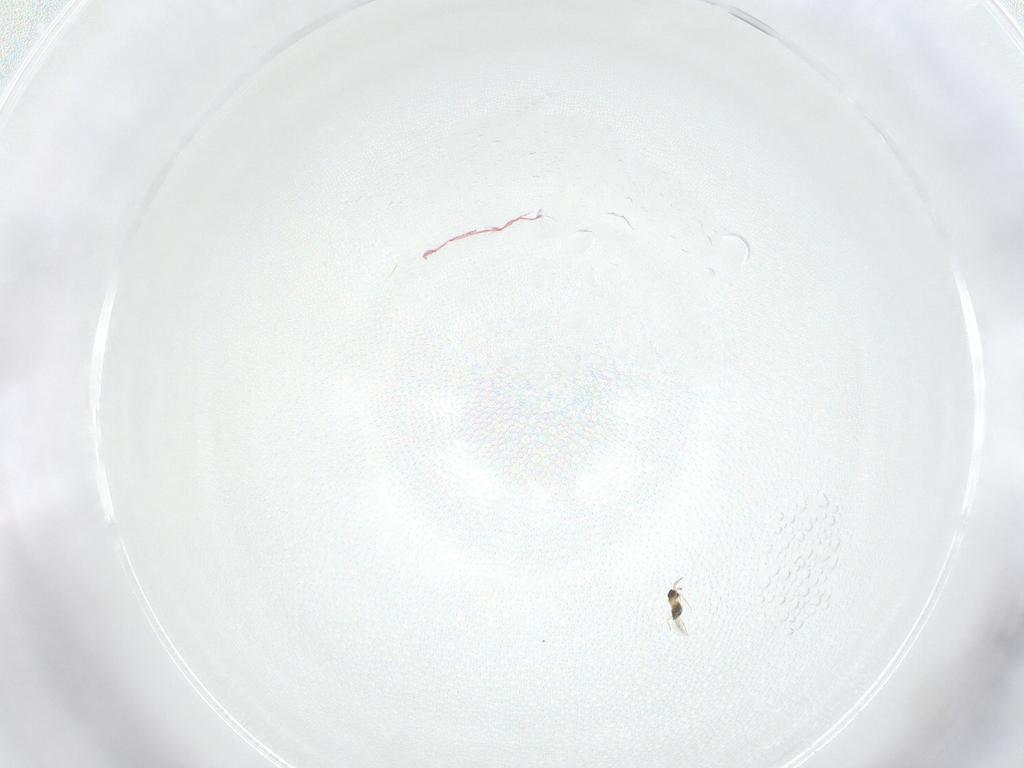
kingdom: Animalia
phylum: Arthropoda
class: Insecta
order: Hymenoptera
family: Mymaridae
